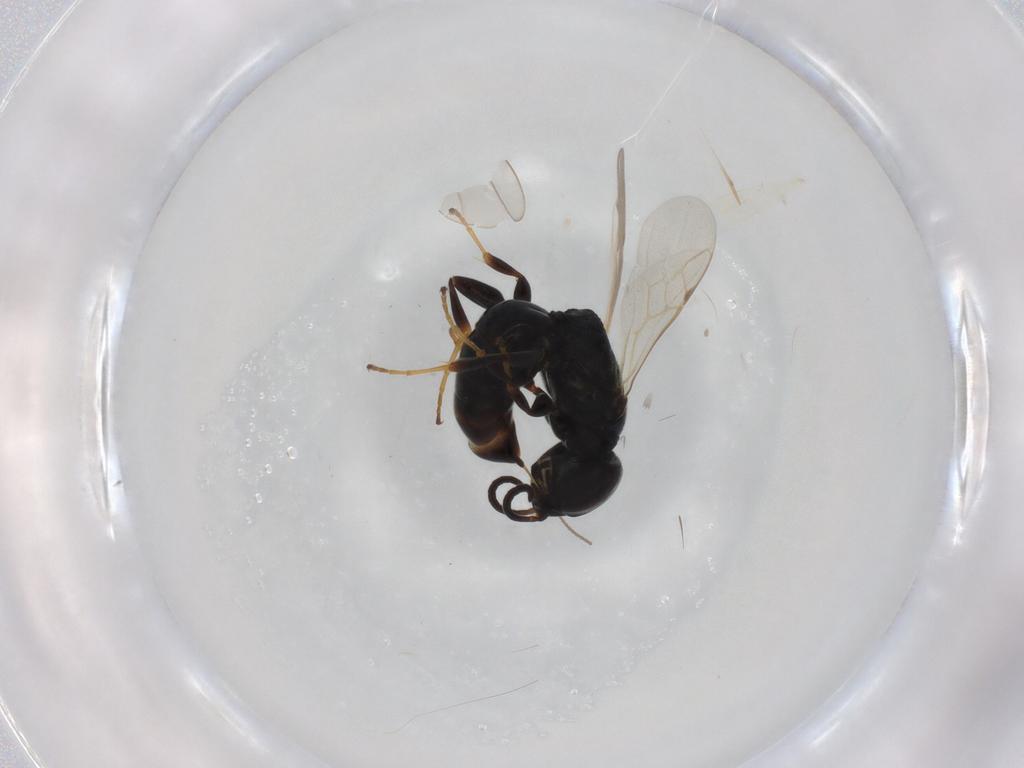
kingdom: Animalia
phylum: Arthropoda
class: Insecta
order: Hymenoptera
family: Crabronidae
